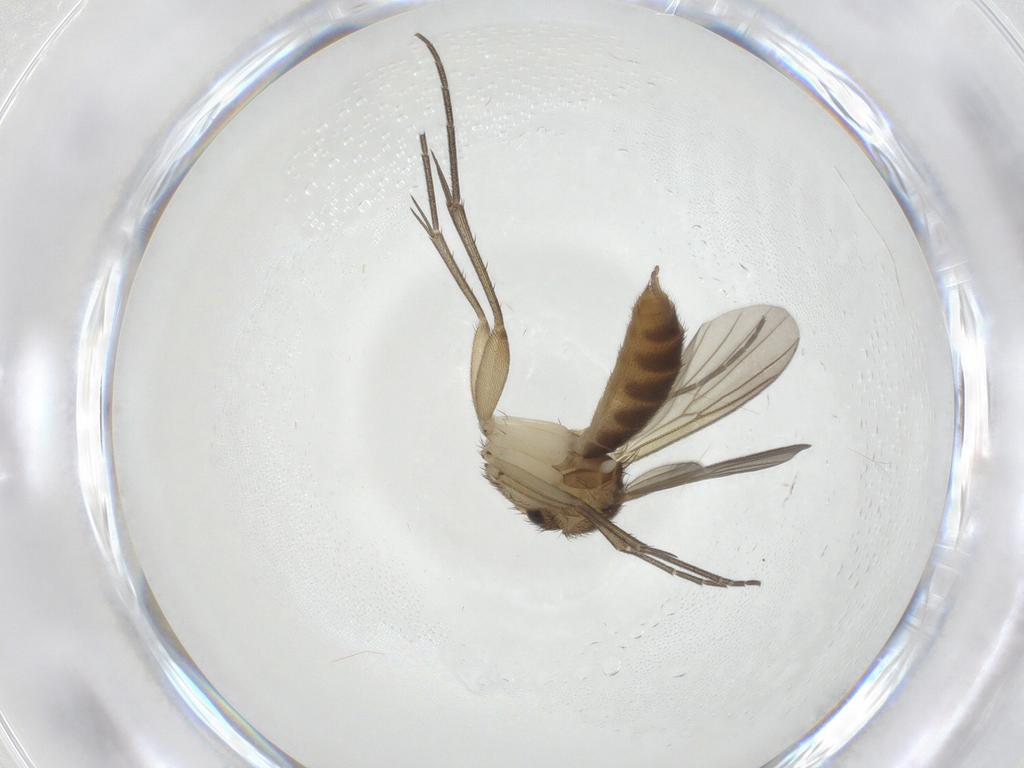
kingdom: Animalia
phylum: Arthropoda
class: Insecta
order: Diptera
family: Mycetophilidae
